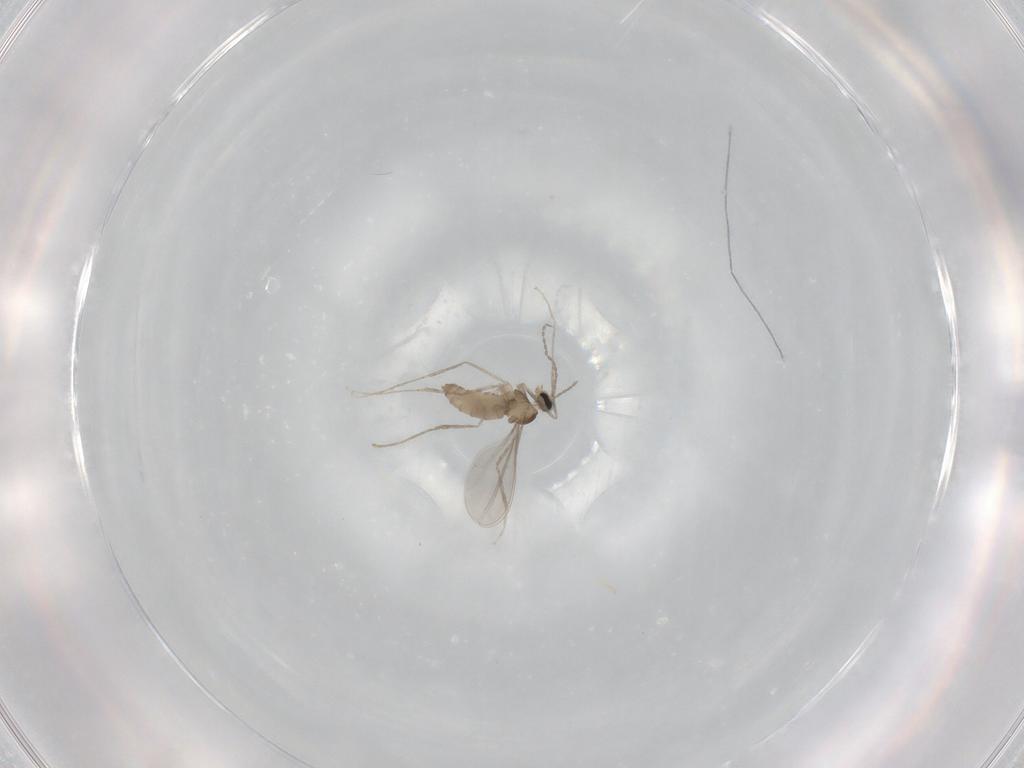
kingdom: Animalia
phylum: Arthropoda
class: Insecta
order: Diptera
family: Cecidomyiidae
